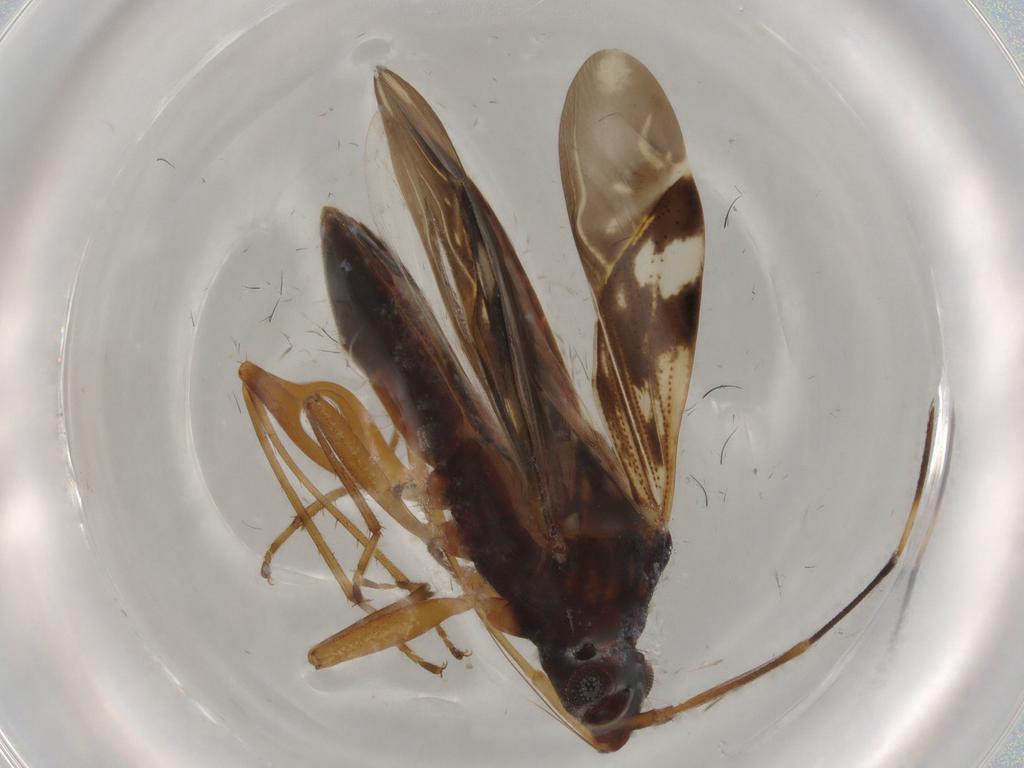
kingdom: Animalia
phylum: Arthropoda
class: Insecta
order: Hemiptera
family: Rhyparochromidae
